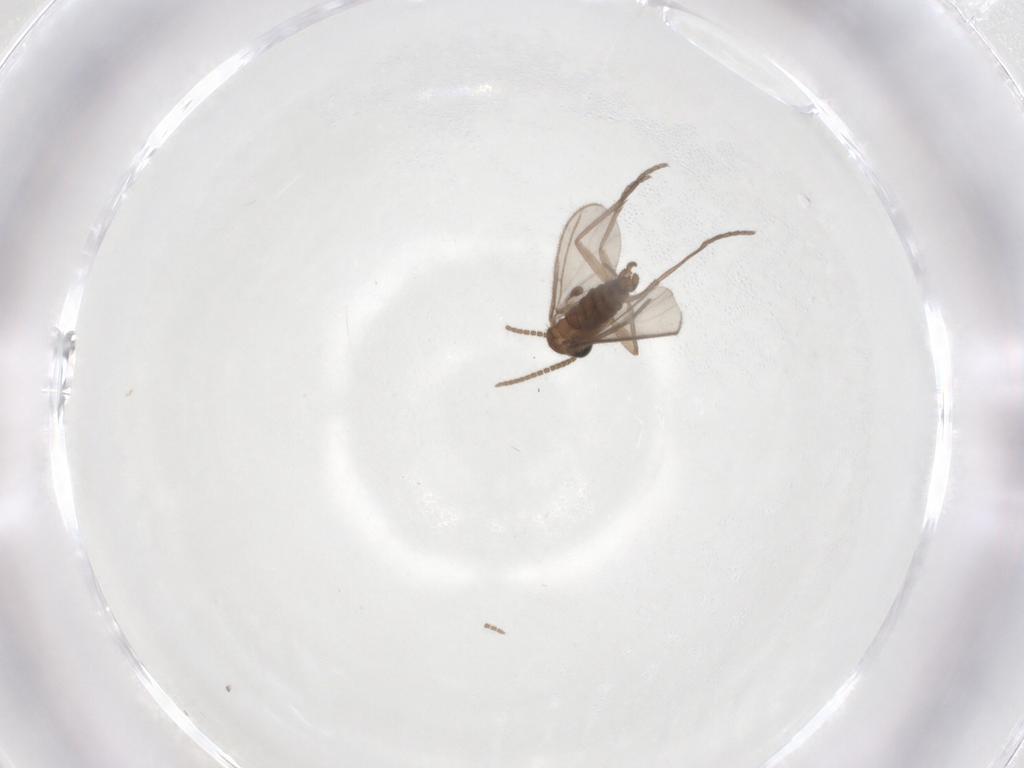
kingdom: Animalia
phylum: Arthropoda
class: Insecta
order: Diptera
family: Sciaridae
